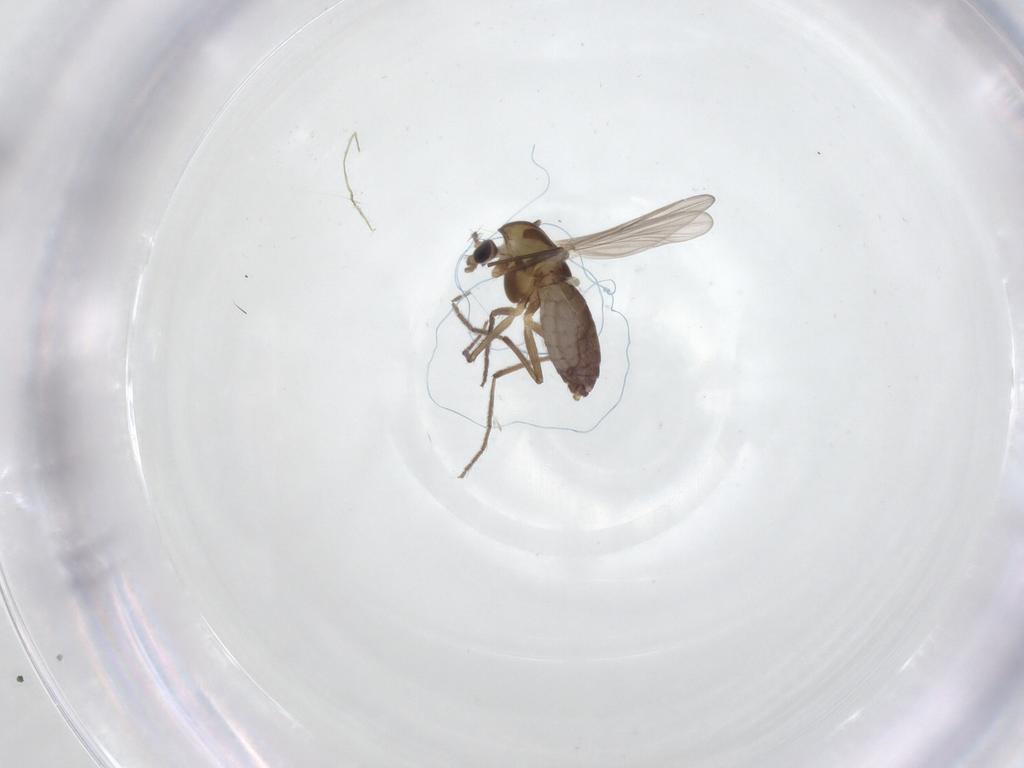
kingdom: Animalia
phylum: Arthropoda
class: Insecta
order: Diptera
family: Chironomidae
